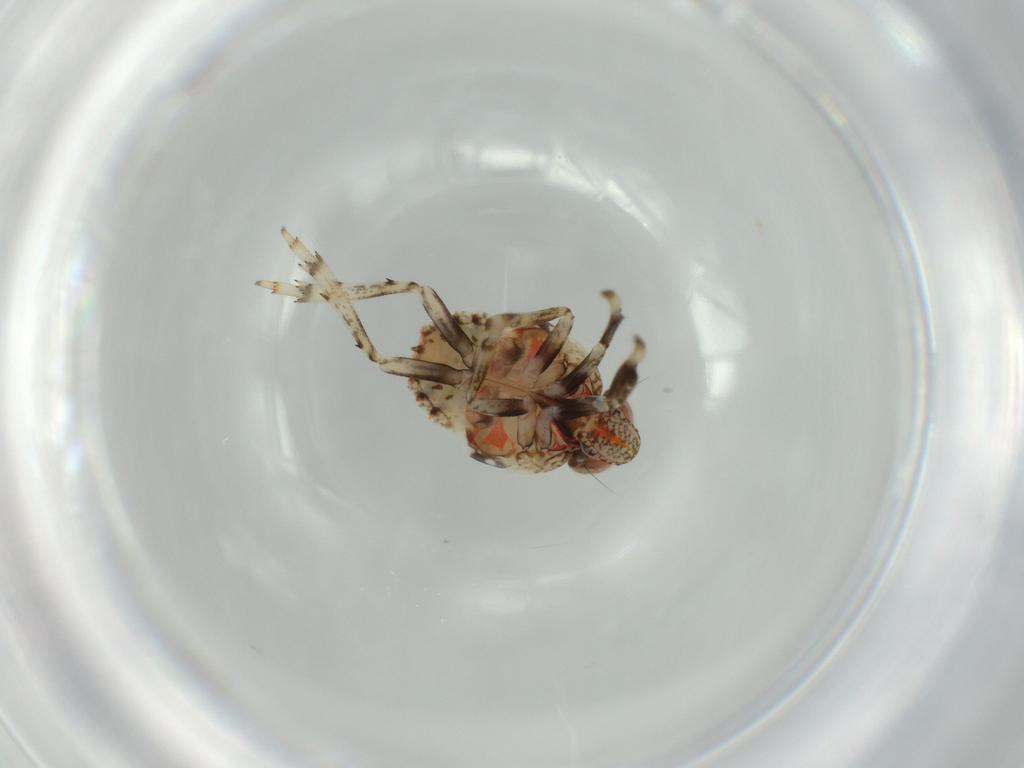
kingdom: Animalia
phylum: Arthropoda
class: Insecta
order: Hemiptera
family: Issidae
